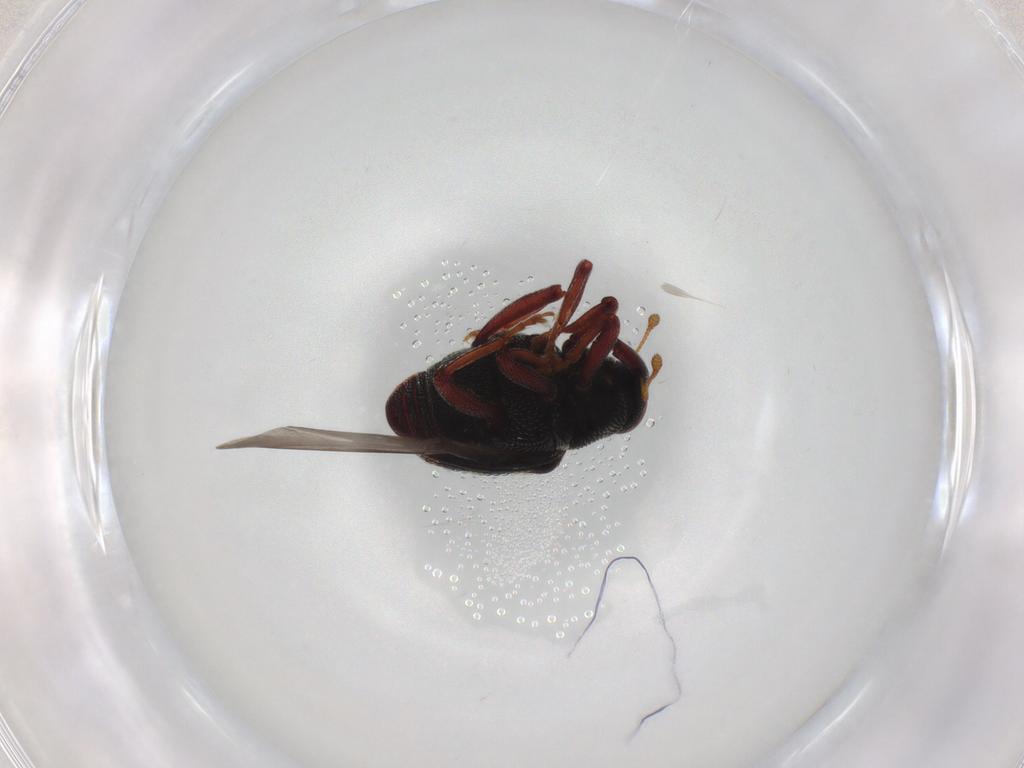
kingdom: Animalia
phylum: Arthropoda
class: Insecta
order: Coleoptera
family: Curculionidae
